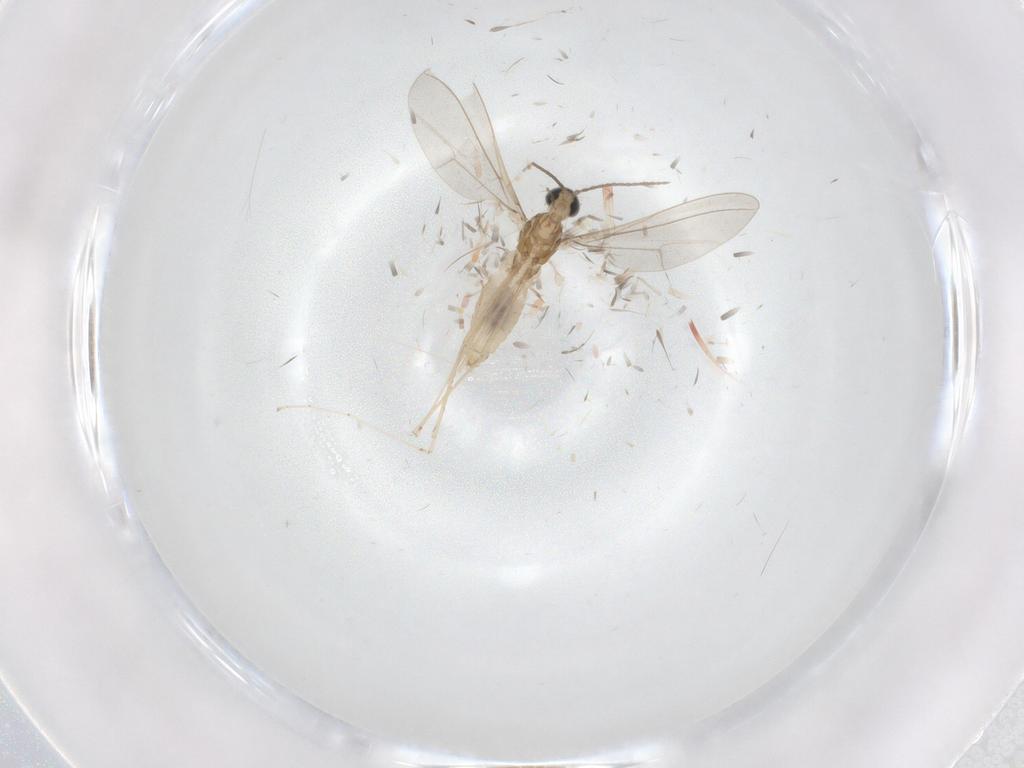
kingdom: Animalia
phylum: Arthropoda
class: Insecta
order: Diptera
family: Cecidomyiidae
